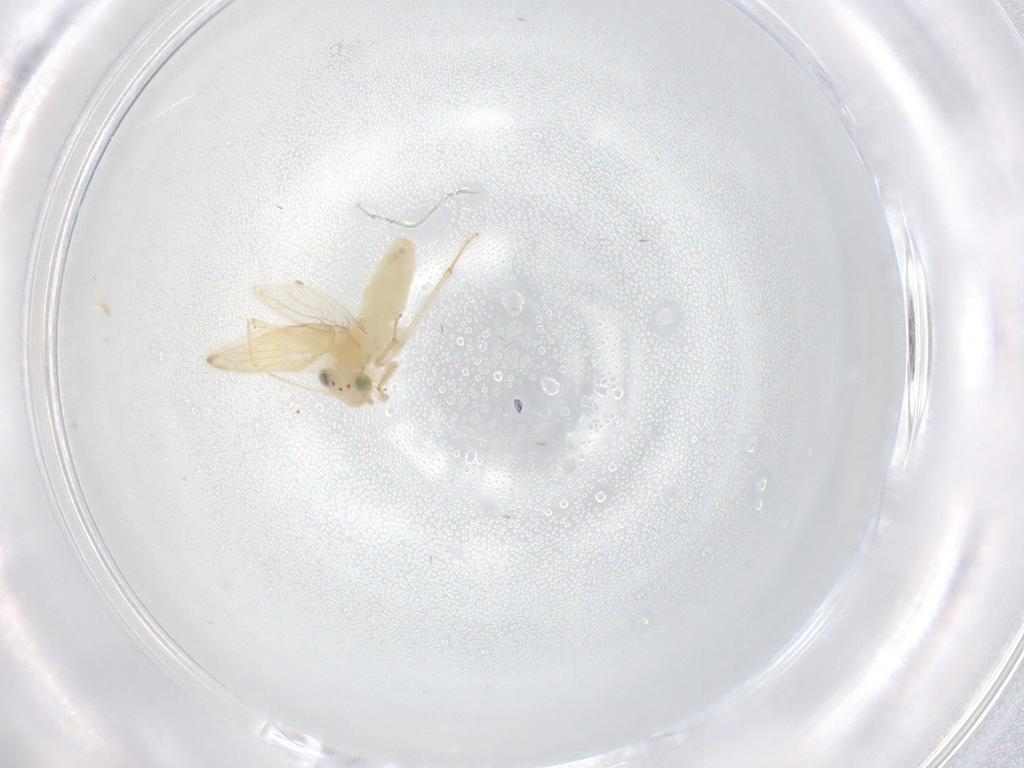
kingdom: Animalia
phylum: Arthropoda
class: Insecta
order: Psocodea
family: Lepidopsocidae
